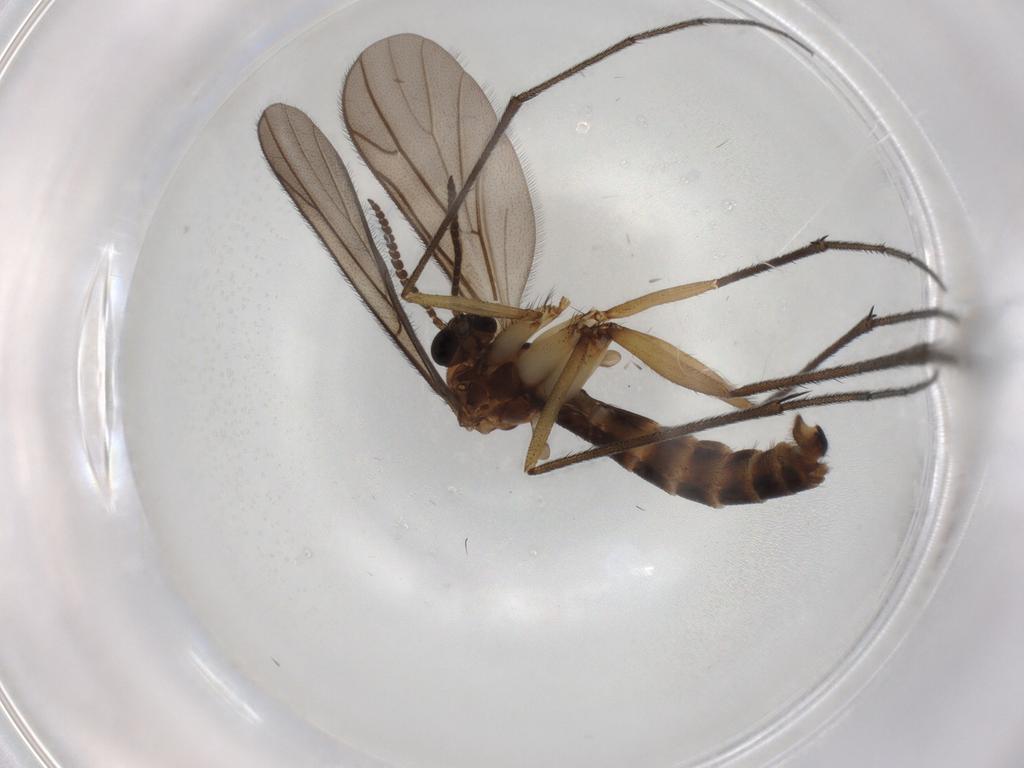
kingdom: Animalia
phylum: Arthropoda
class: Insecta
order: Diptera
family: Ditomyiidae
